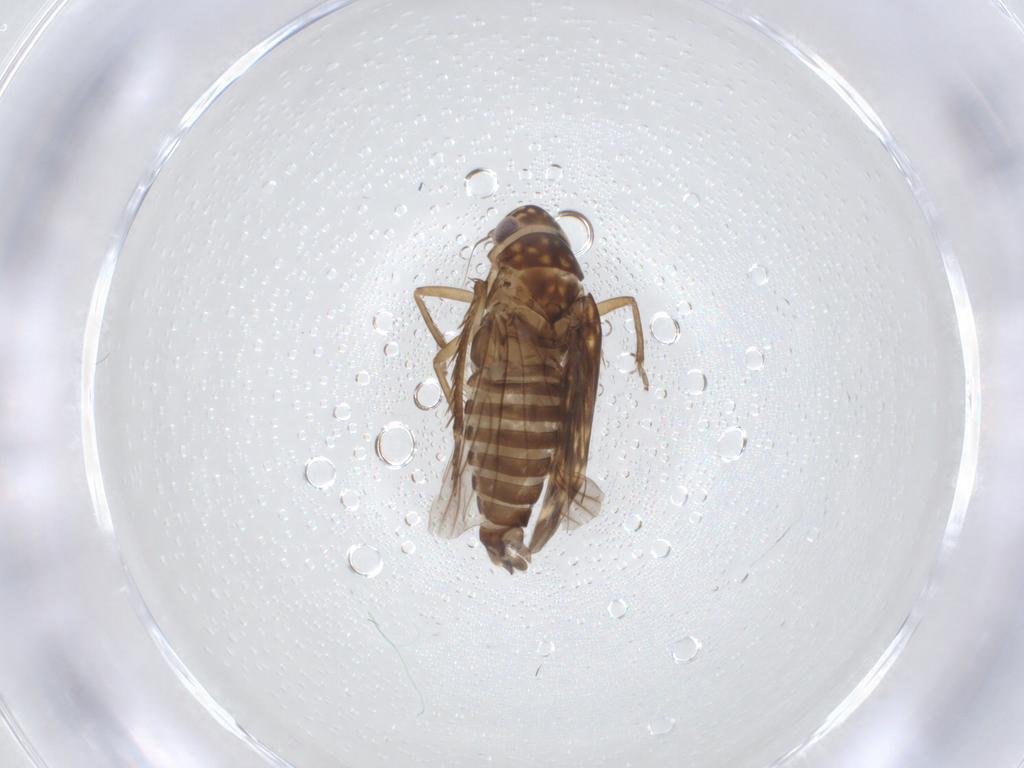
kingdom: Animalia
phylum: Arthropoda
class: Insecta
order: Hemiptera
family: Cicadellidae
